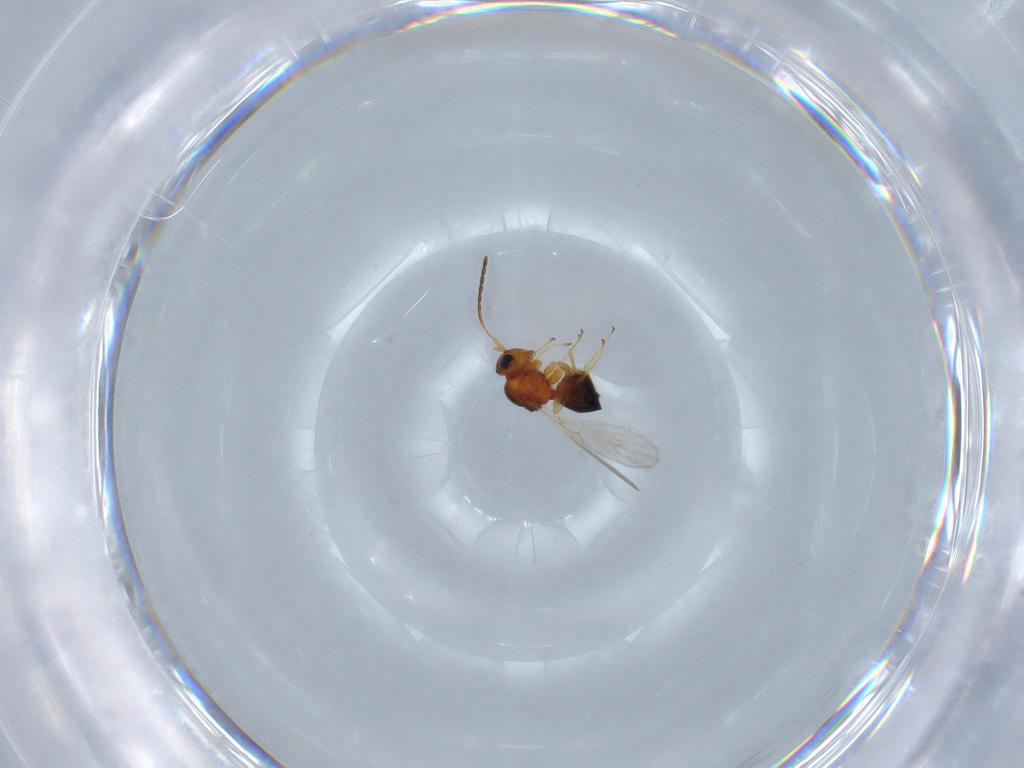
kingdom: Animalia
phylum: Arthropoda
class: Insecta
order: Hymenoptera
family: Figitidae
